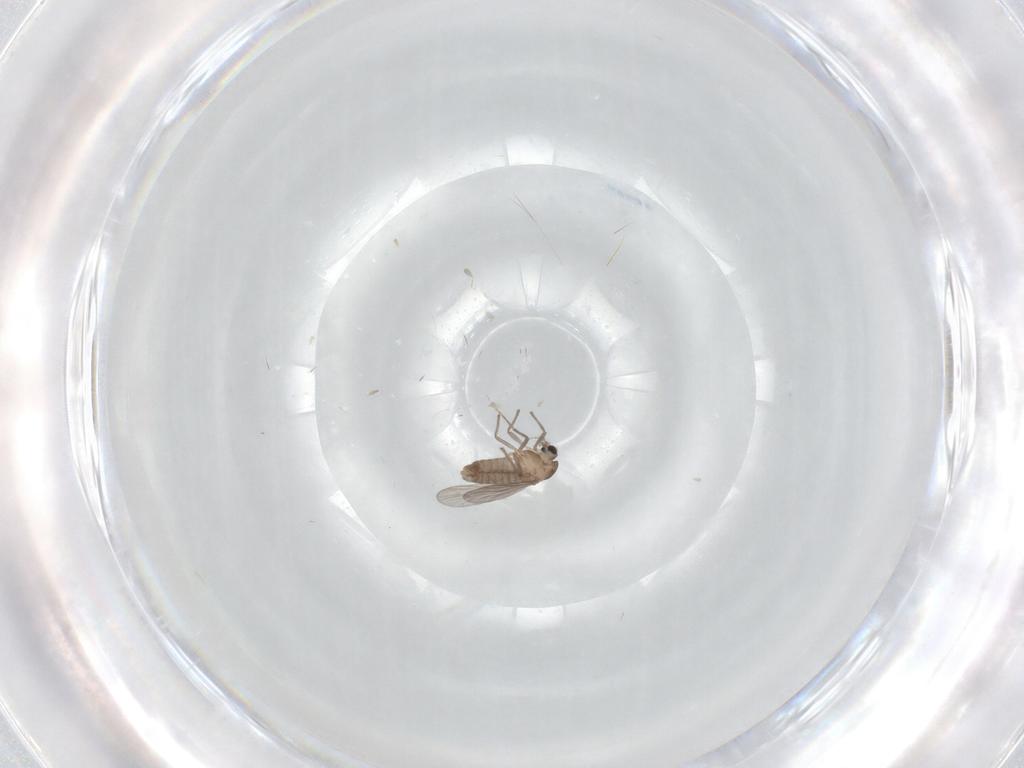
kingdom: Animalia
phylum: Arthropoda
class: Insecta
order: Diptera
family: Chironomidae
